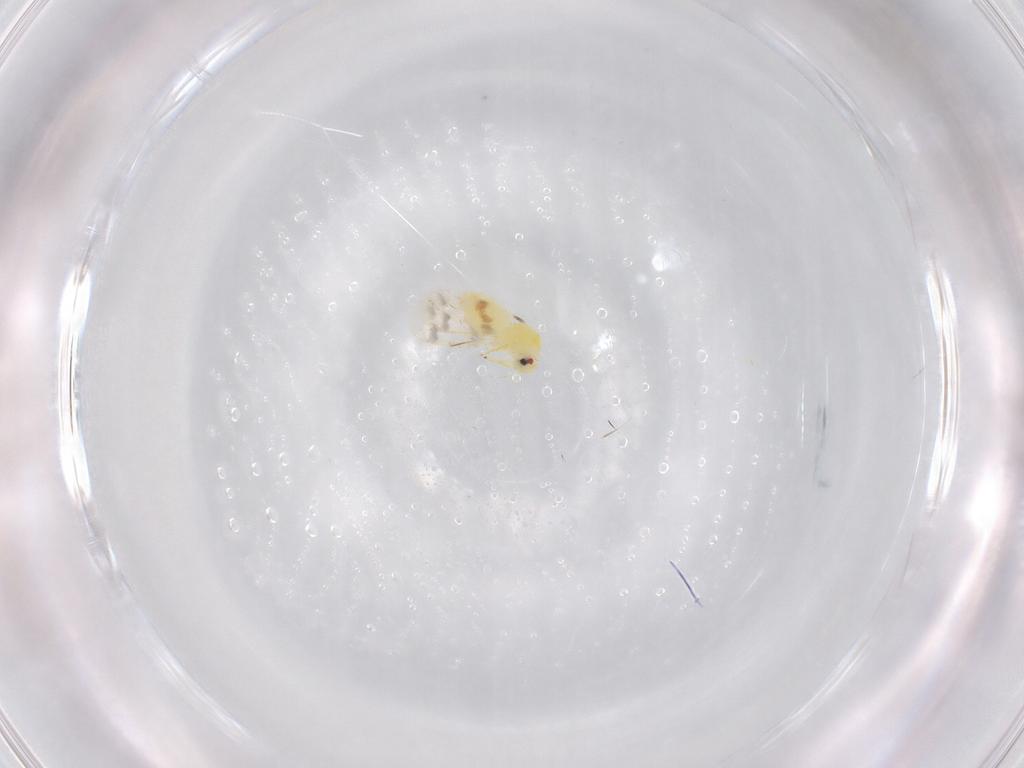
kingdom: Animalia
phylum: Arthropoda
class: Insecta
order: Hemiptera
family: Aleyrodidae
